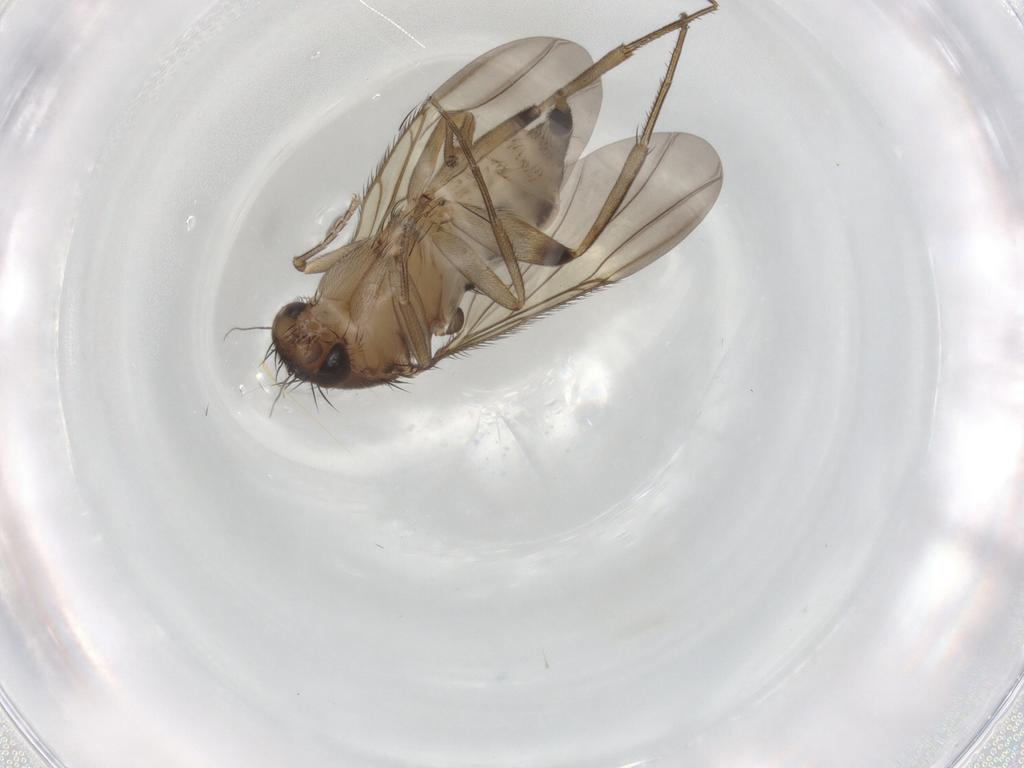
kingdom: Animalia
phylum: Arthropoda
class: Insecta
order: Diptera
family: Phoridae
